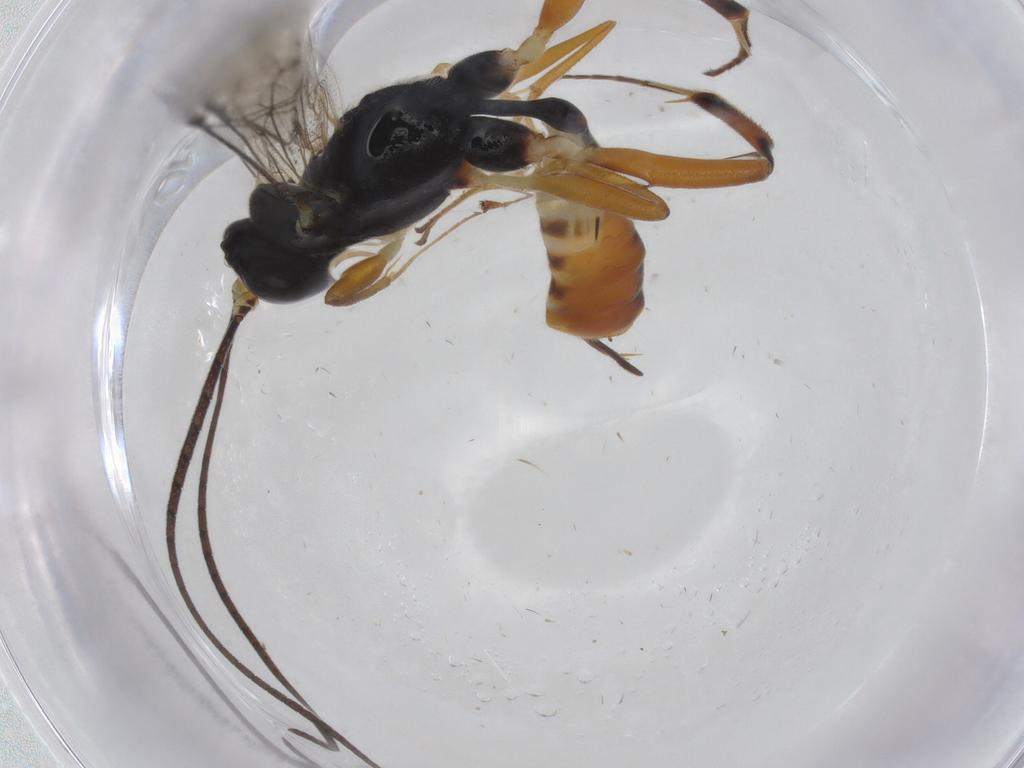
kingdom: Animalia
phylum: Arthropoda
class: Insecta
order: Hymenoptera
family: Ichneumonidae
